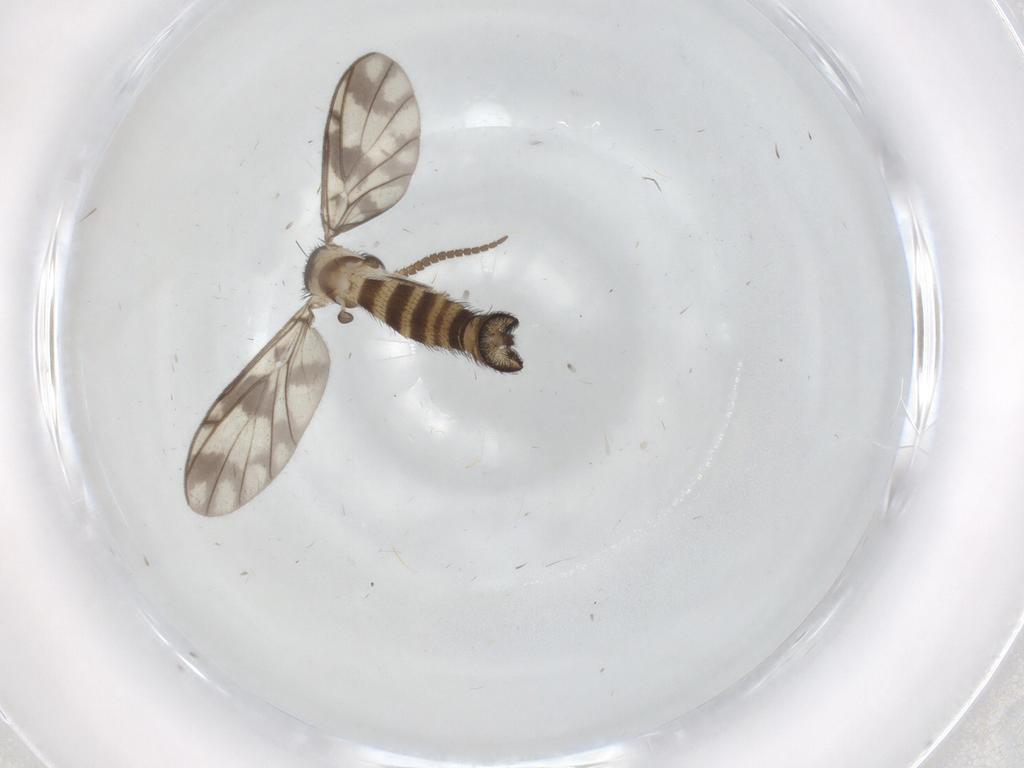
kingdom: Animalia
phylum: Arthropoda
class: Insecta
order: Diptera
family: Keroplatidae
